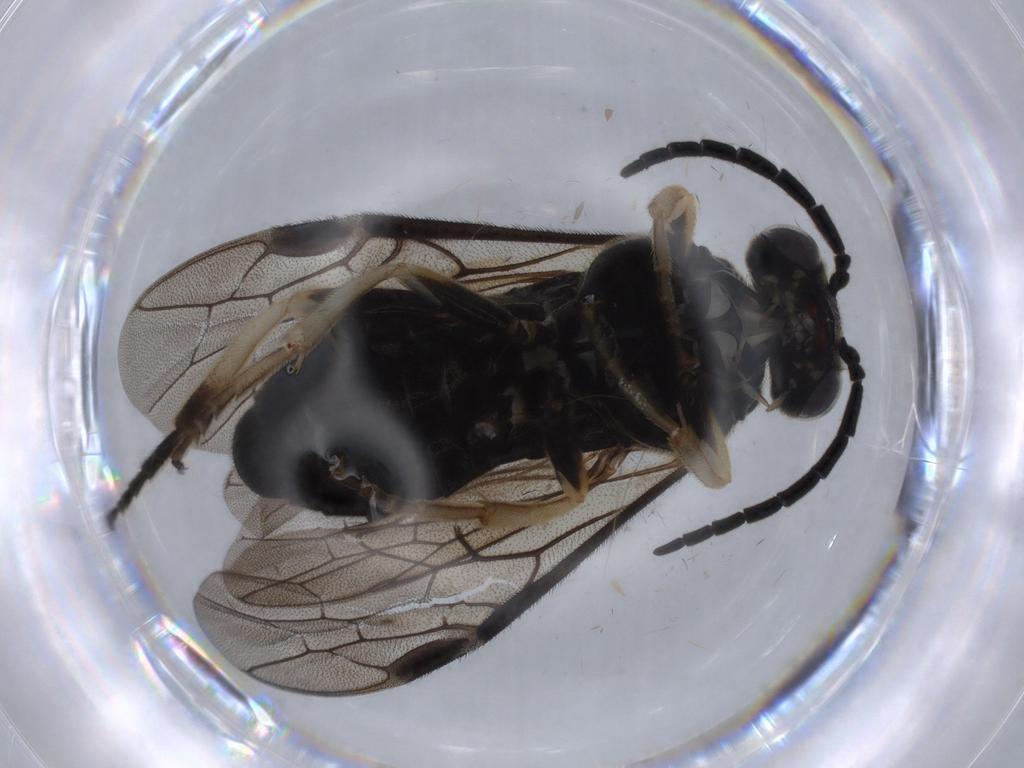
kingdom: Animalia
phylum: Arthropoda
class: Insecta
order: Hymenoptera
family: Tenthredinidae
